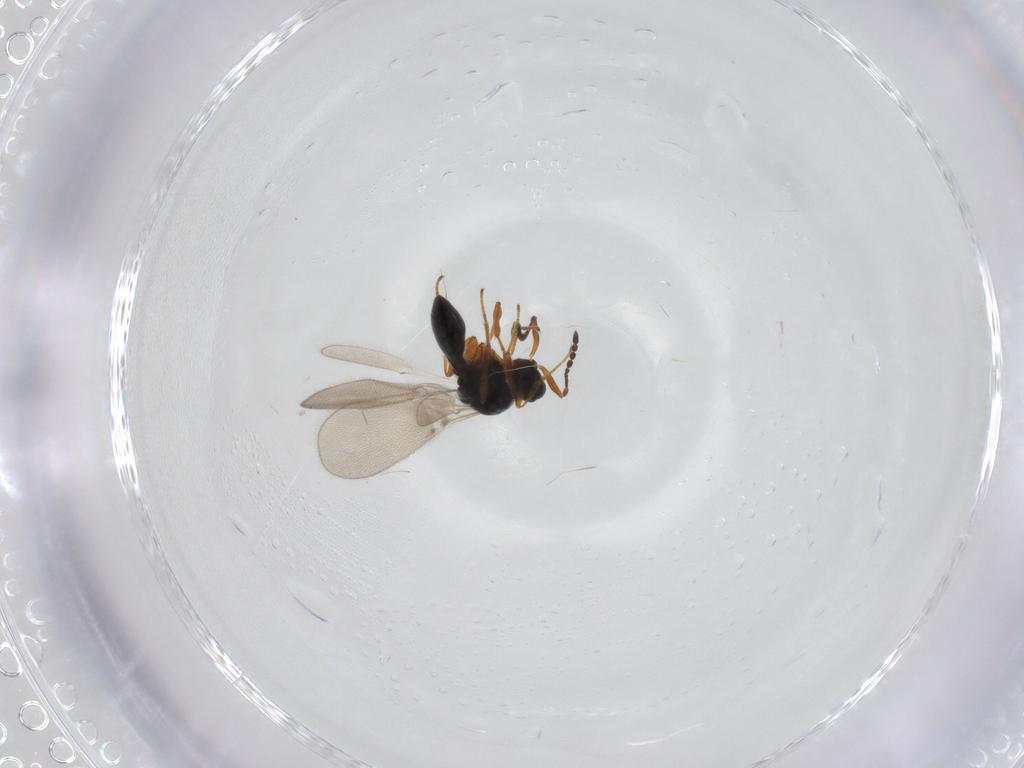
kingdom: Animalia
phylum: Arthropoda
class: Insecta
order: Hymenoptera
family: Platygastridae
